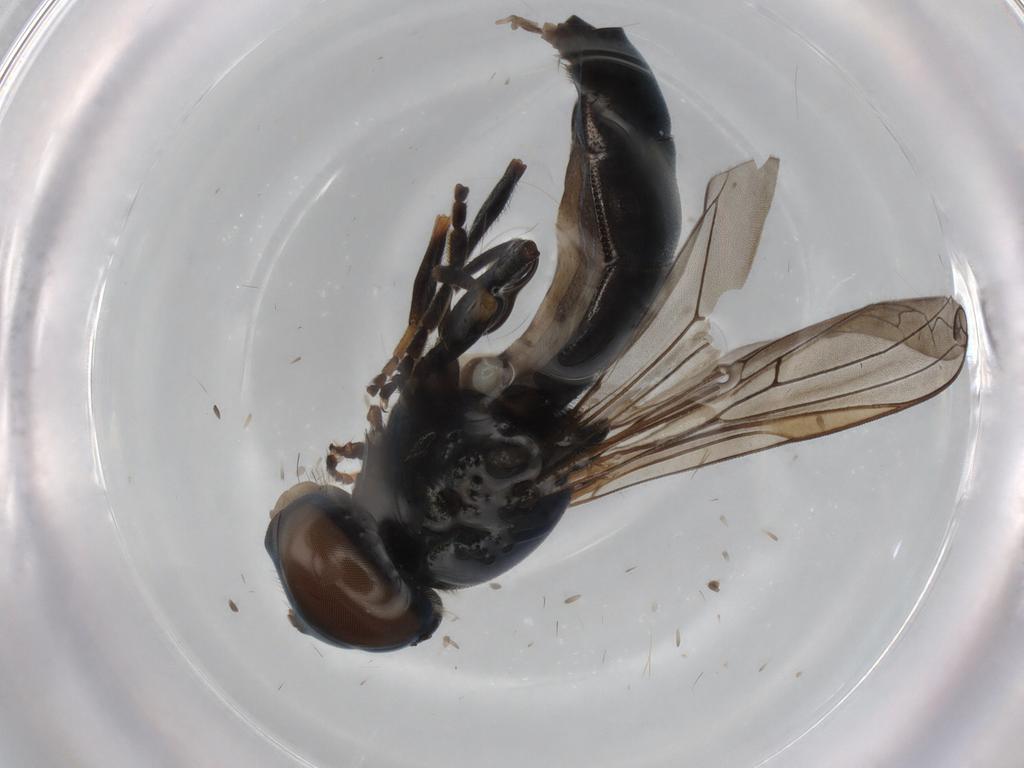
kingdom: Animalia
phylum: Arthropoda
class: Insecta
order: Diptera
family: Syrphidae
